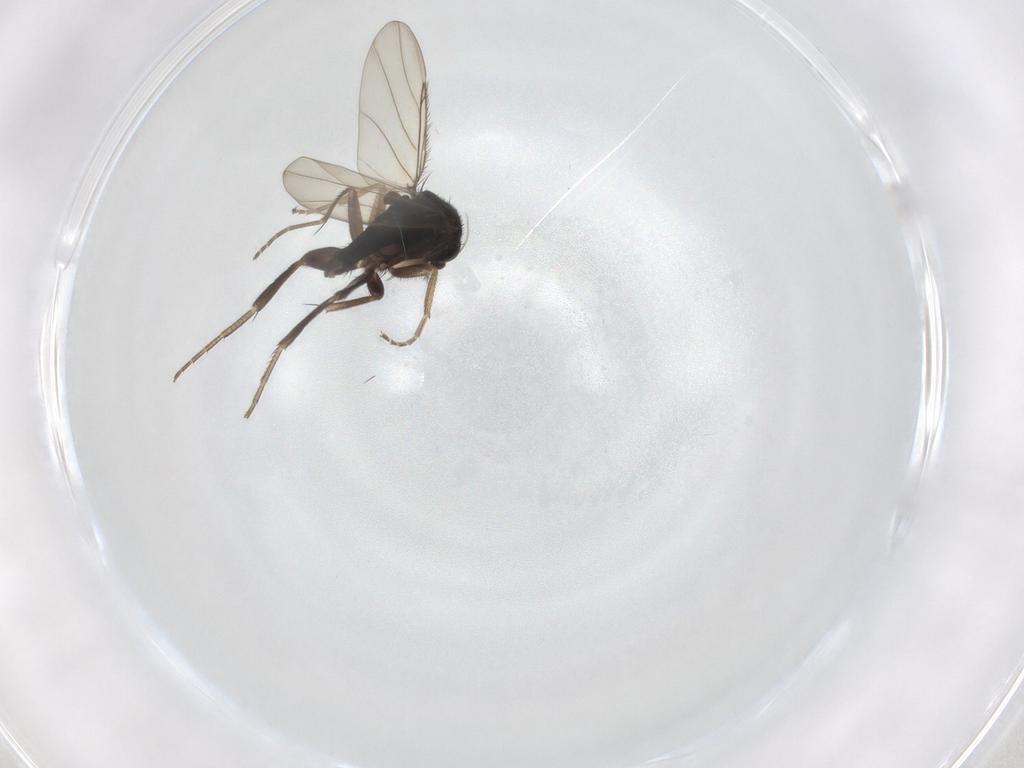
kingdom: Animalia
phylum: Arthropoda
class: Insecta
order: Diptera
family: Phoridae
